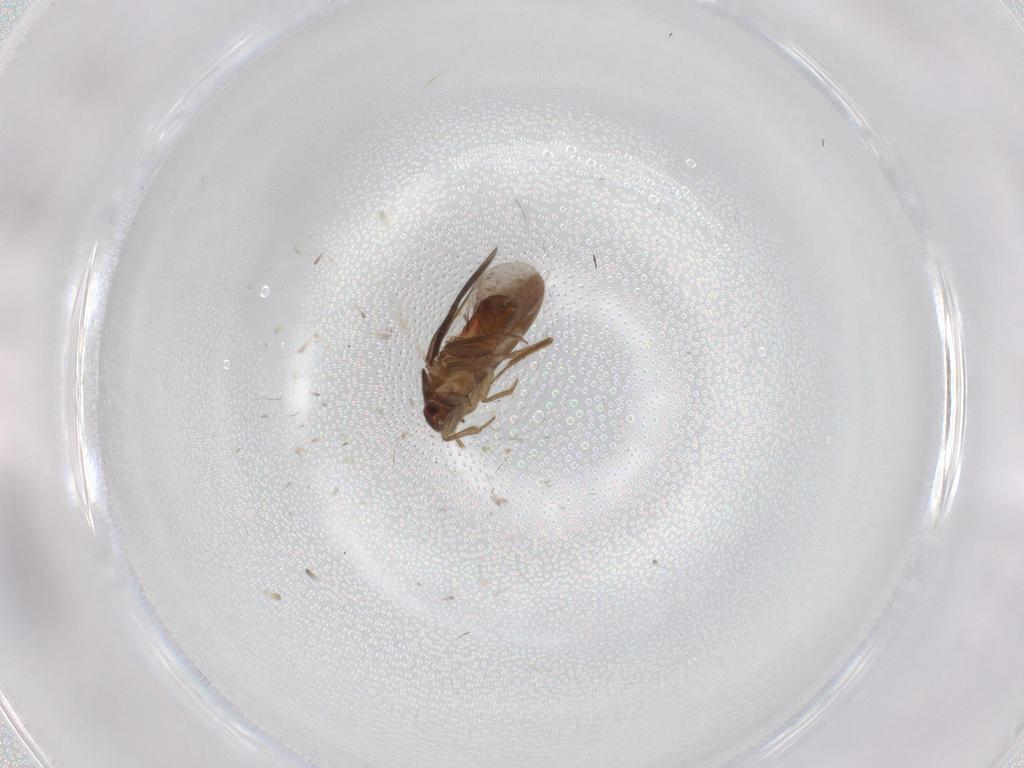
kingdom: Animalia
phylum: Arthropoda
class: Insecta
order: Hemiptera
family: Ceratocombidae
